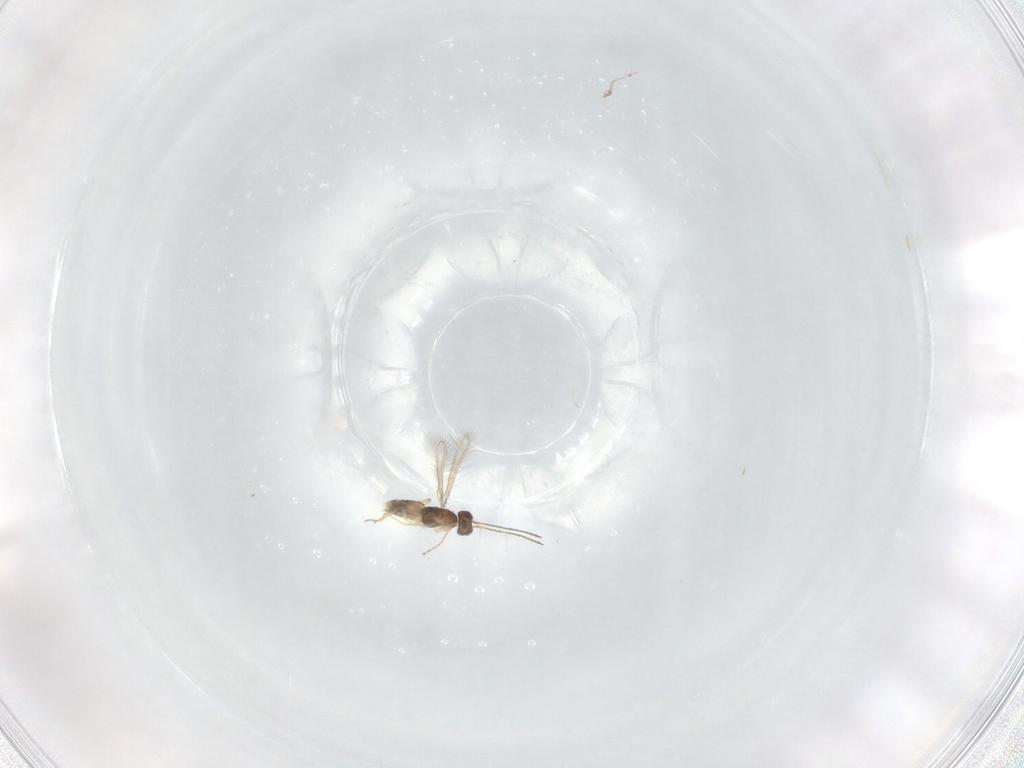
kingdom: Animalia
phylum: Arthropoda
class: Insecta
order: Hymenoptera
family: Mymaridae
